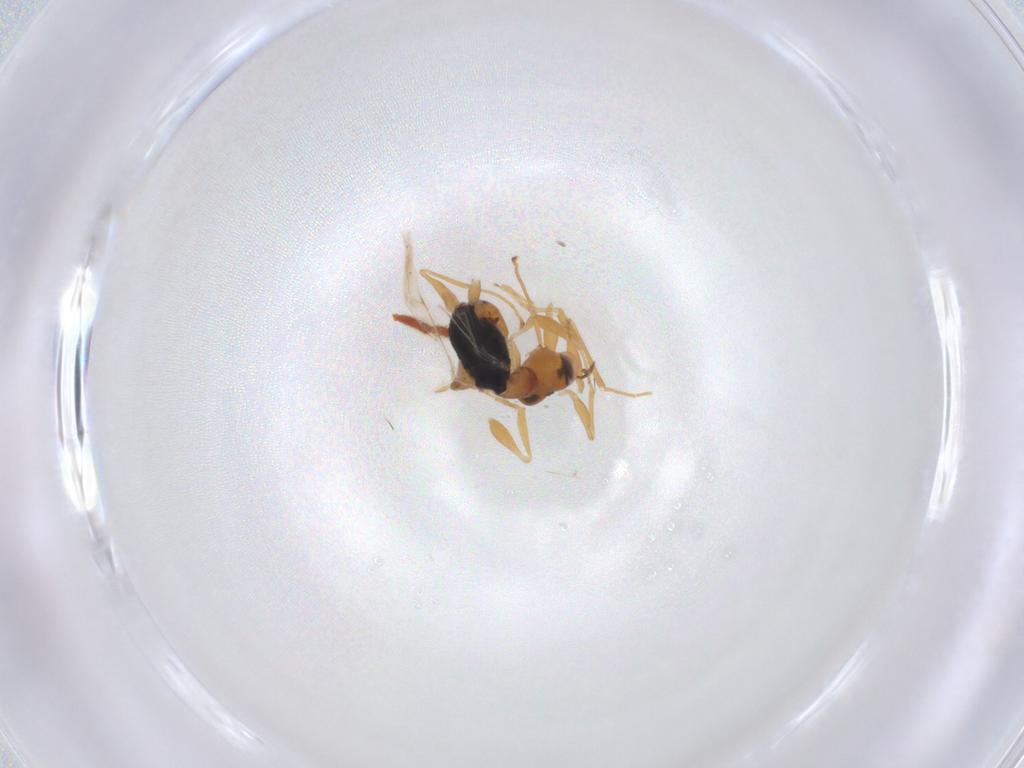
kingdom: Animalia
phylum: Arthropoda
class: Insecta
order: Hymenoptera
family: Dryinidae
